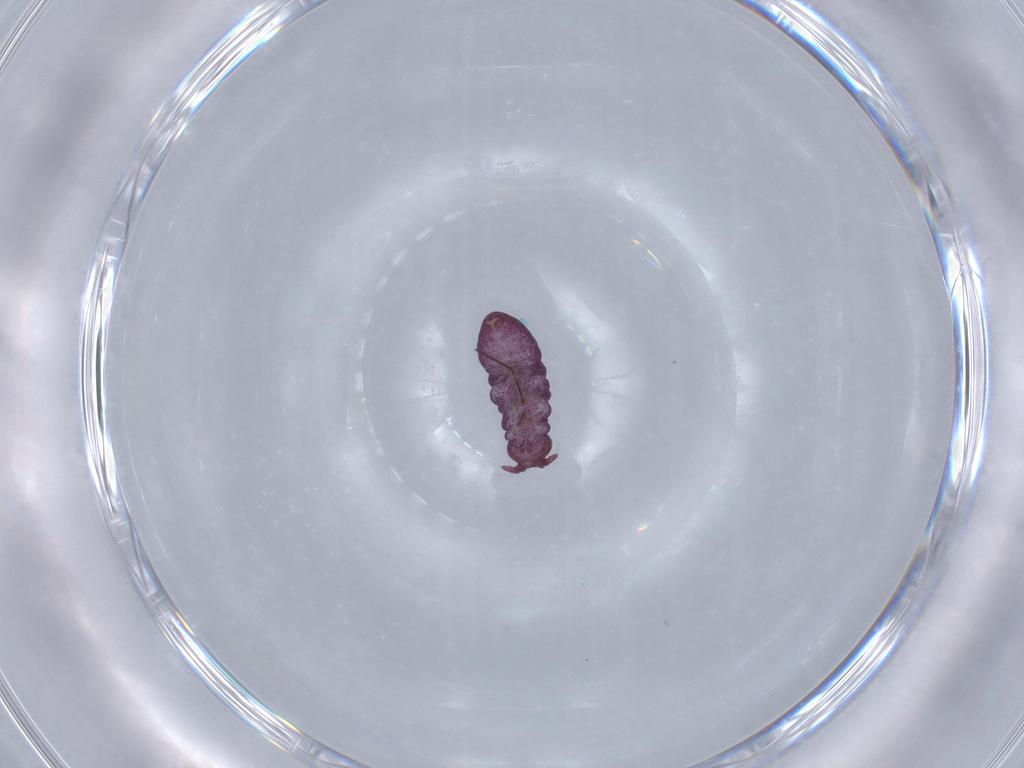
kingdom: Animalia
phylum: Arthropoda
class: Collembola
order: Poduromorpha
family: Brachystomellidae
